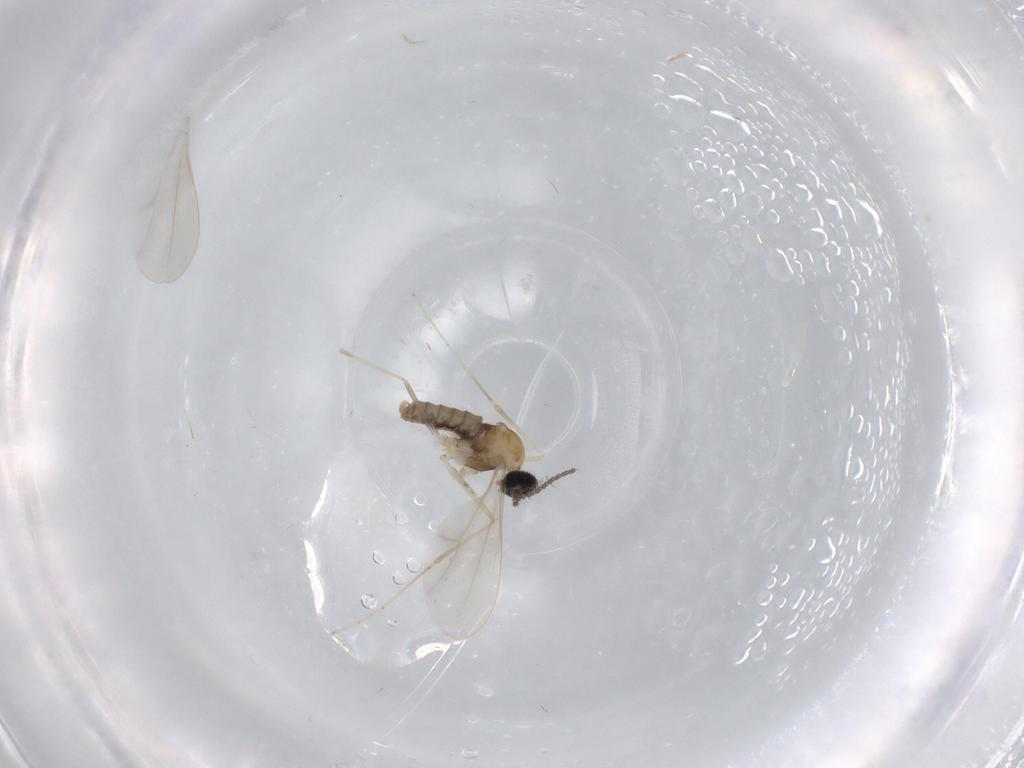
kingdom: Animalia
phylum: Arthropoda
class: Insecta
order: Diptera
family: Cecidomyiidae
